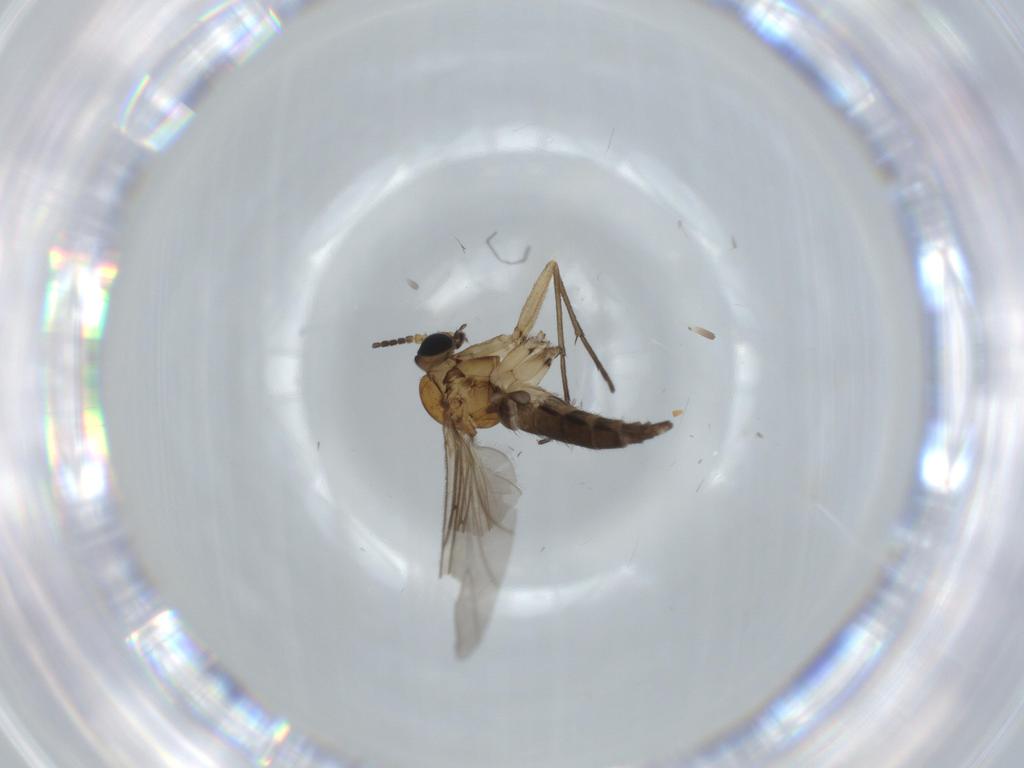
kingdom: Animalia
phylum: Arthropoda
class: Insecta
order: Diptera
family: Sciaridae
